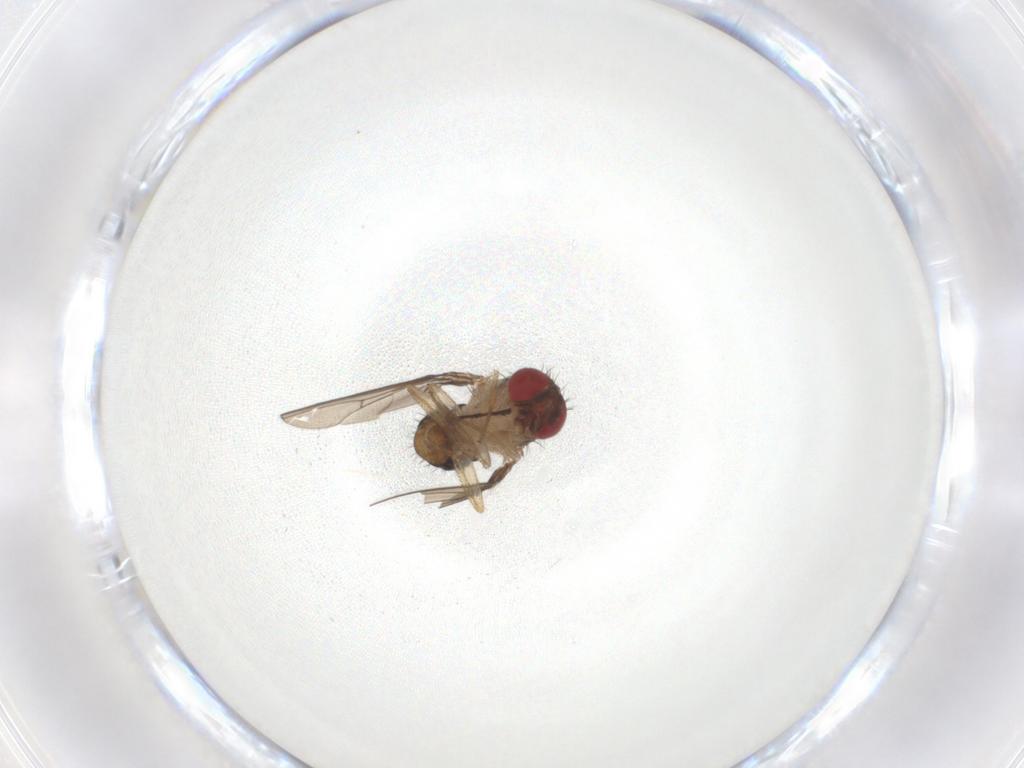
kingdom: Animalia
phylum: Arthropoda
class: Insecta
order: Diptera
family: Drosophilidae
